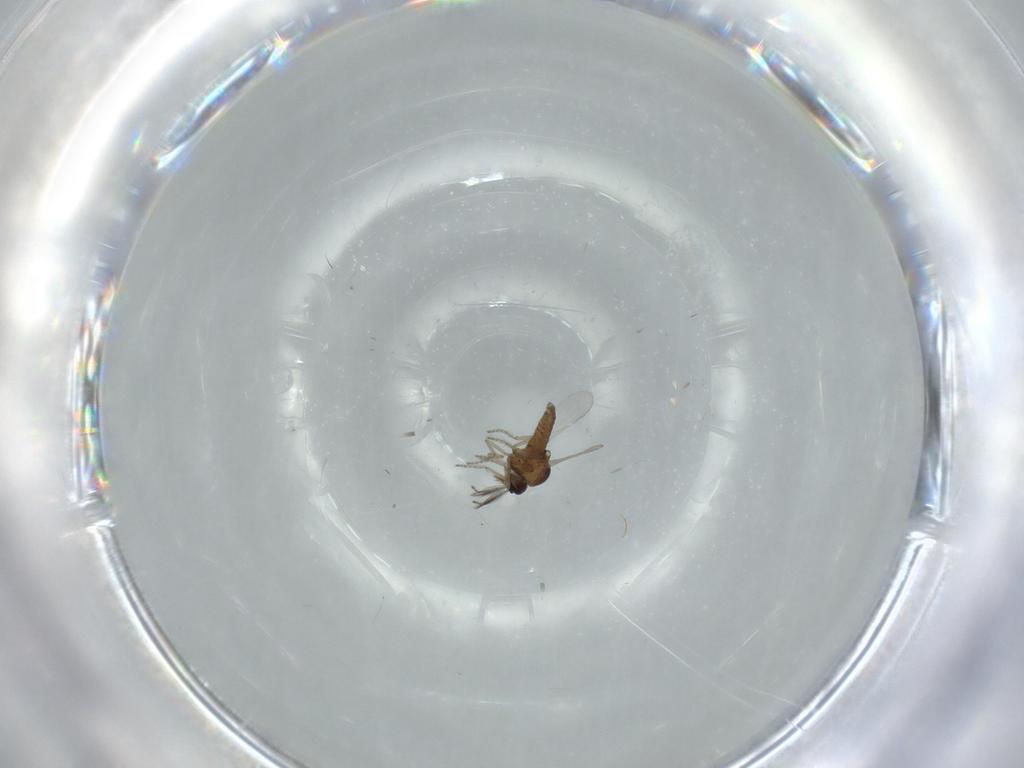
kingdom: Animalia
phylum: Arthropoda
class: Insecta
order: Diptera
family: Ceratopogonidae
